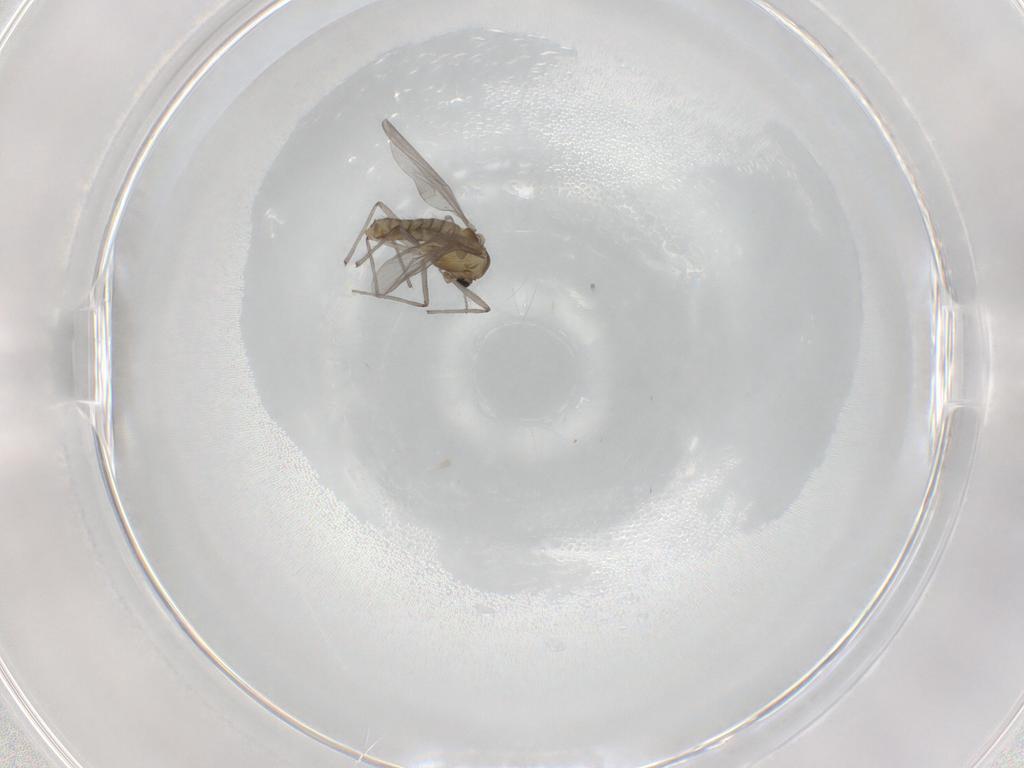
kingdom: Animalia
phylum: Arthropoda
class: Insecta
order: Diptera
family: Chironomidae
